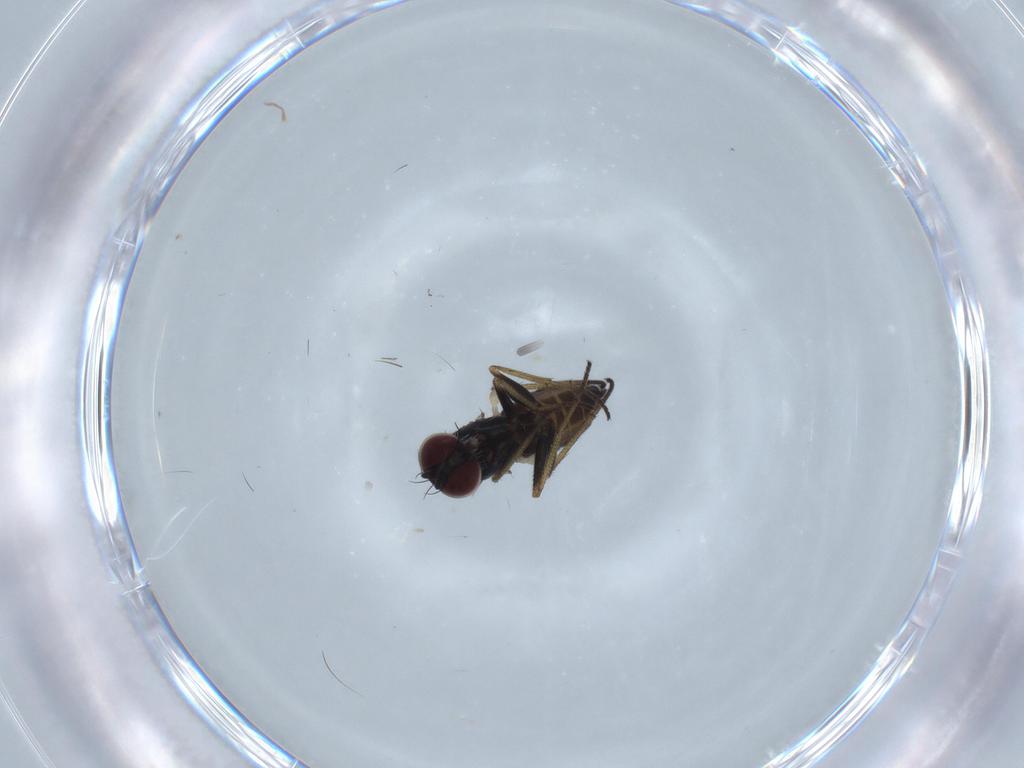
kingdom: Animalia
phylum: Arthropoda
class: Insecta
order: Diptera
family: Dolichopodidae
